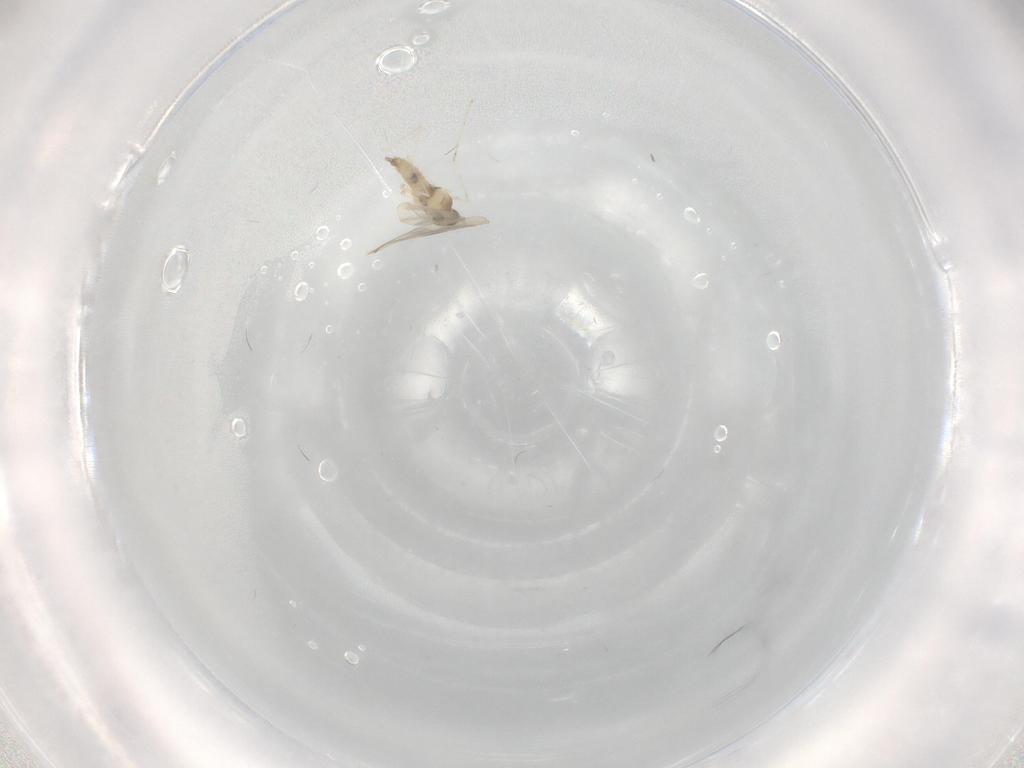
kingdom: Animalia
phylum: Arthropoda
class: Insecta
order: Diptera
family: Cecidomyiidae
